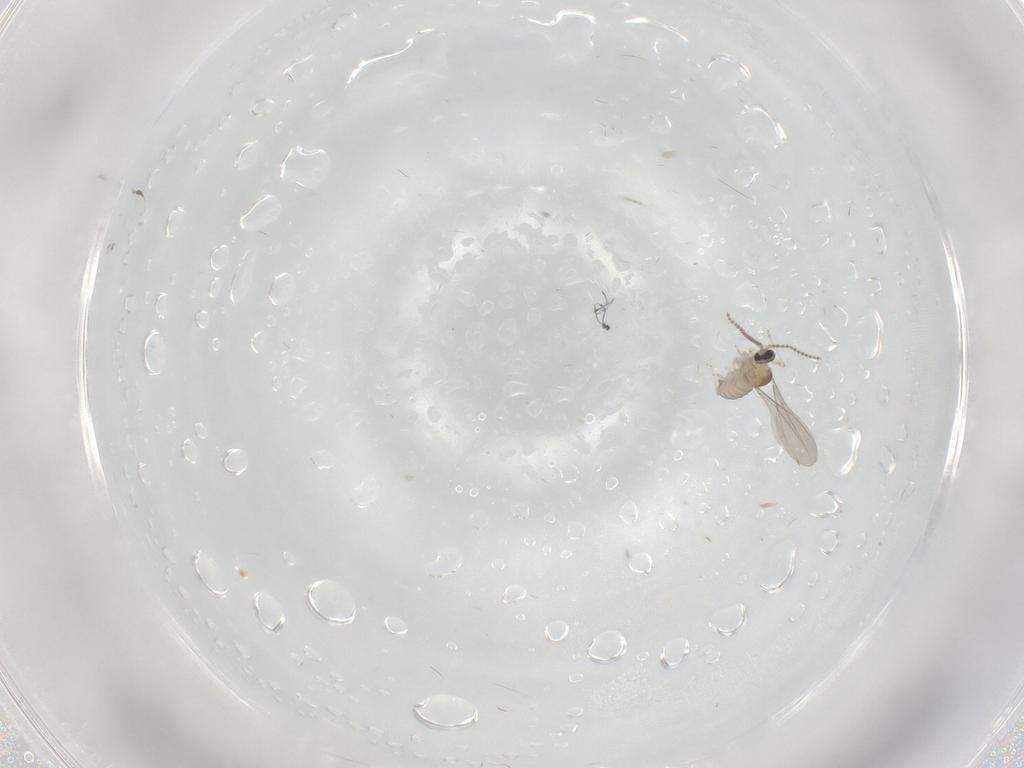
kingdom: Animalia
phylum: Arthropoda
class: Insecta
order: Diptera
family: Cecidomyiidae
